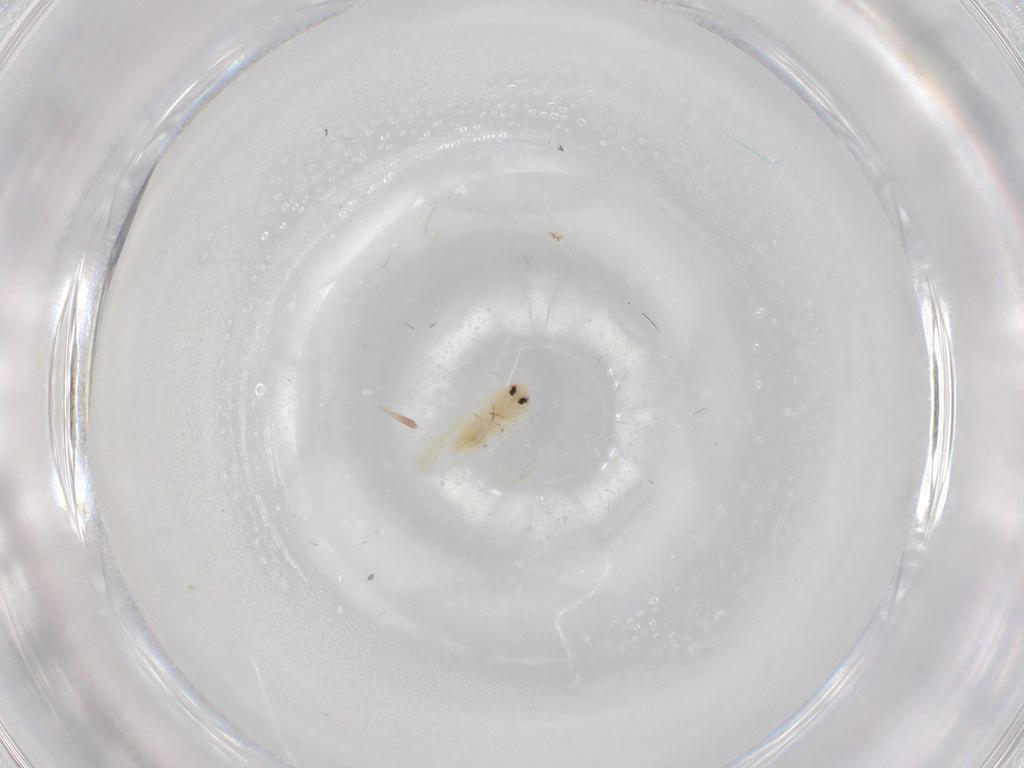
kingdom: Animalia
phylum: Arthropoda
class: Insecta
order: Hemiptera
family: Aleyrodidae
